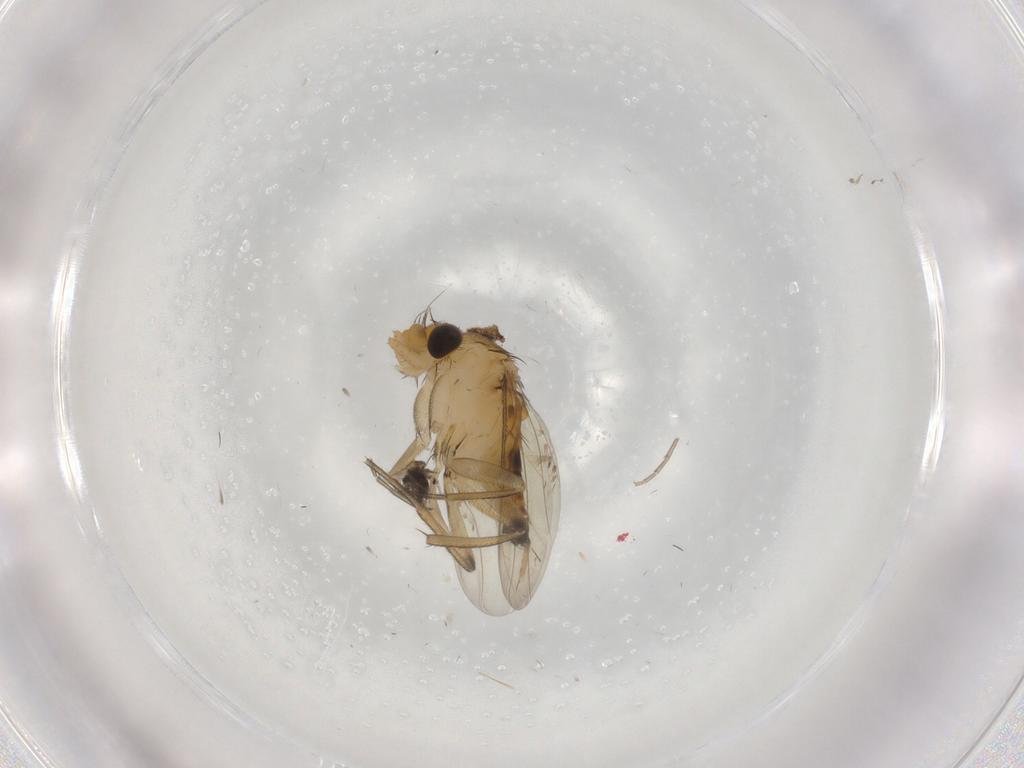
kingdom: Animalia
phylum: Arthropoda
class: Insecta
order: Diptera
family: Phoridae
